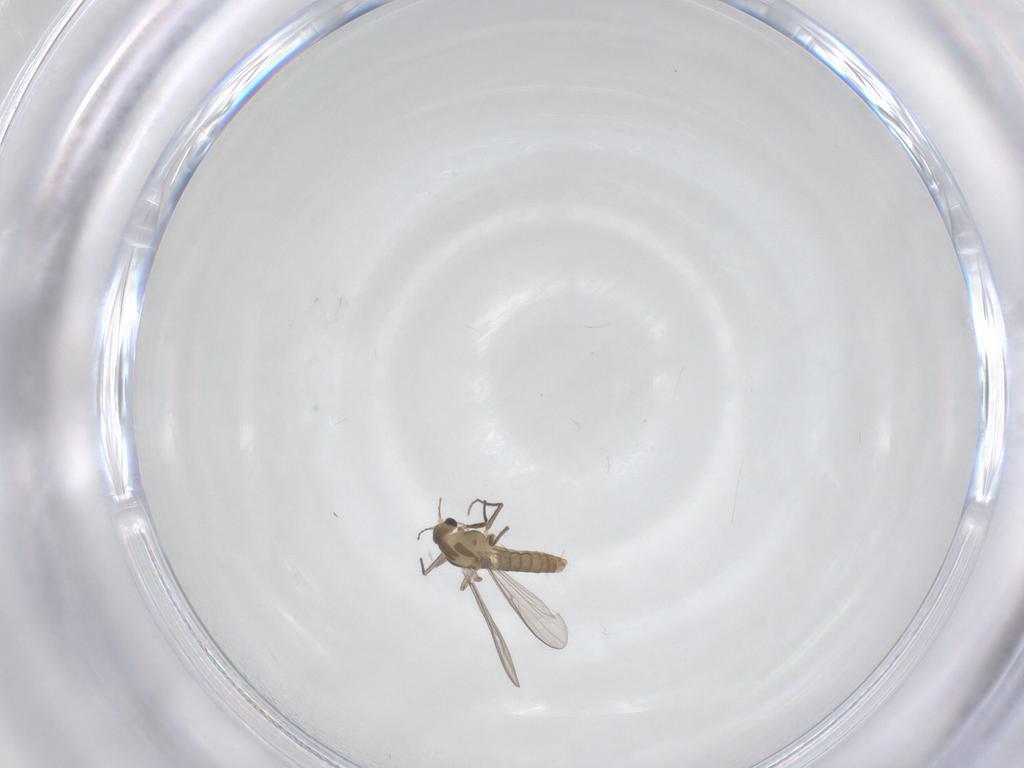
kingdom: Animalia
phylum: Arthropoda
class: Insecta
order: Diptera
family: Chironomidae
